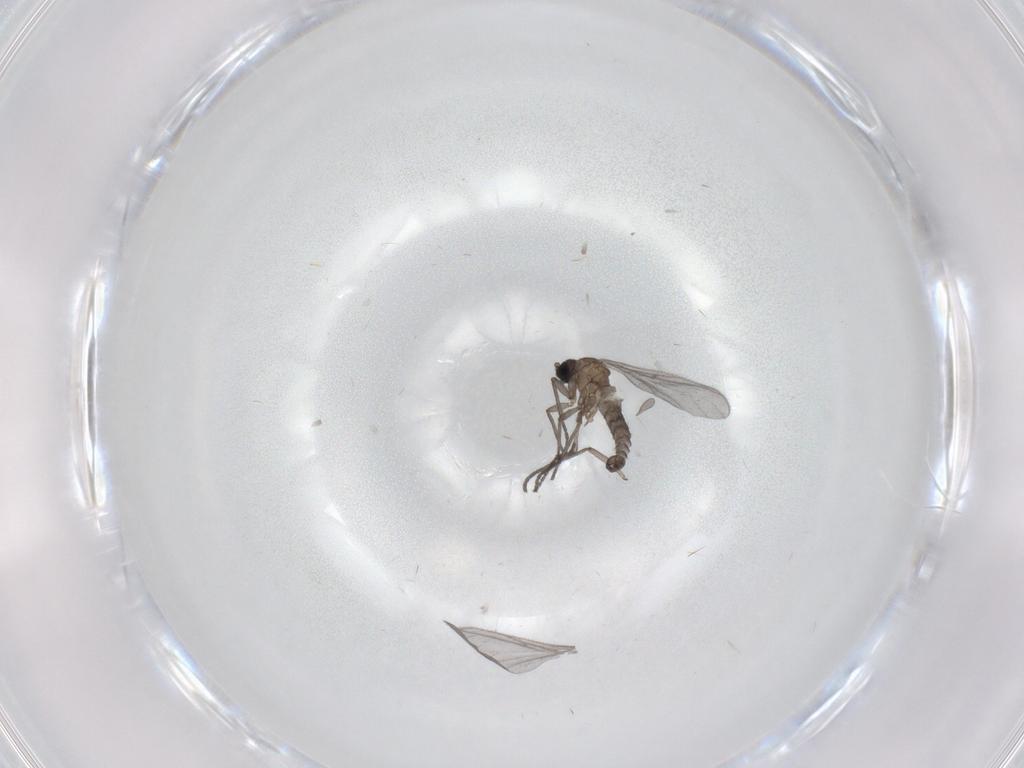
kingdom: Animalia
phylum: Arthropoda
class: Insecta
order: Diptera
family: Sciaridae
